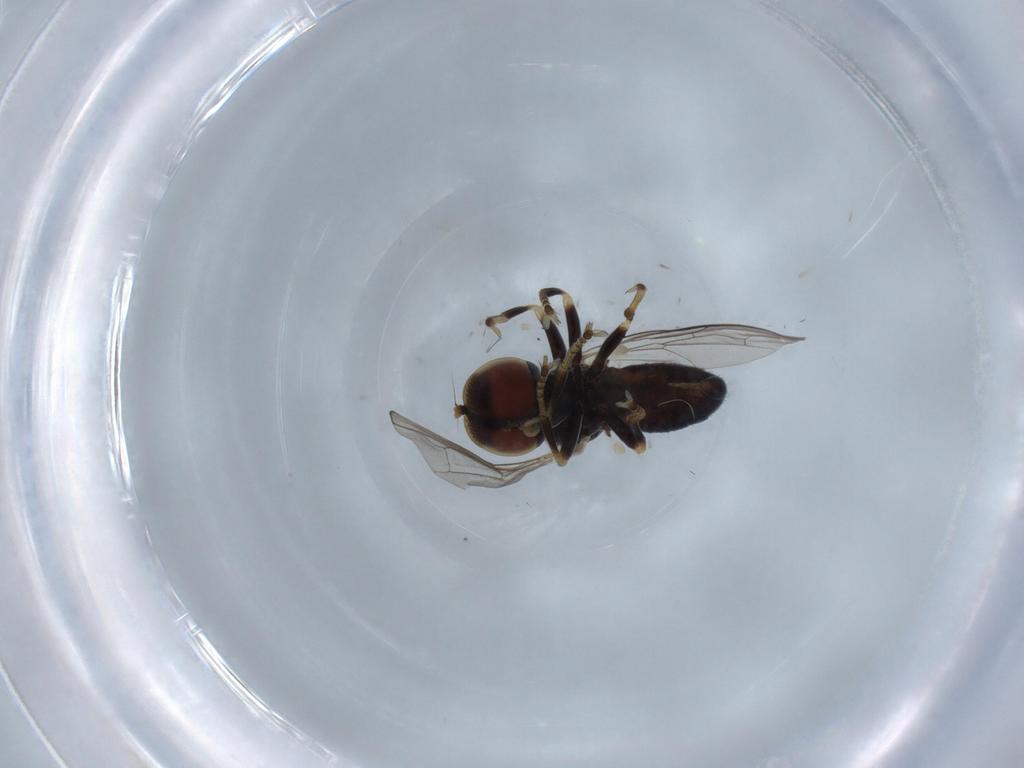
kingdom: Animalia
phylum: Arthropoda
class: Insecta
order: Diptera
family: Pipunculidae
